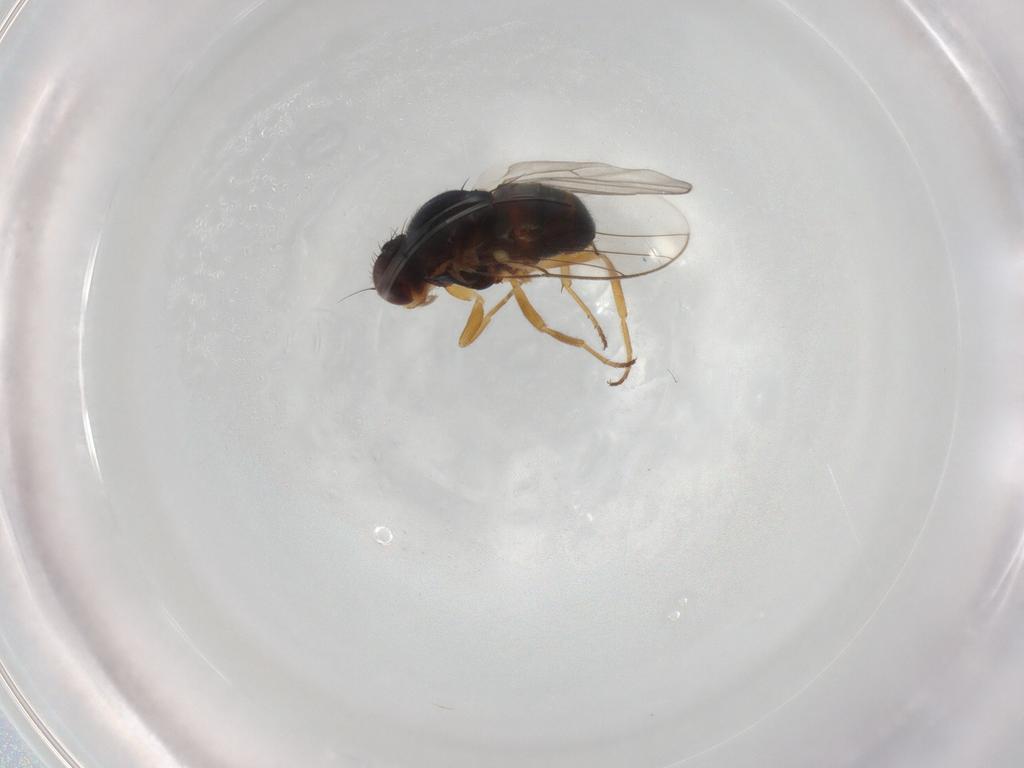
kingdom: Animalia
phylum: Arthropoda
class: Insecta
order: Diptera
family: Chloropidae
